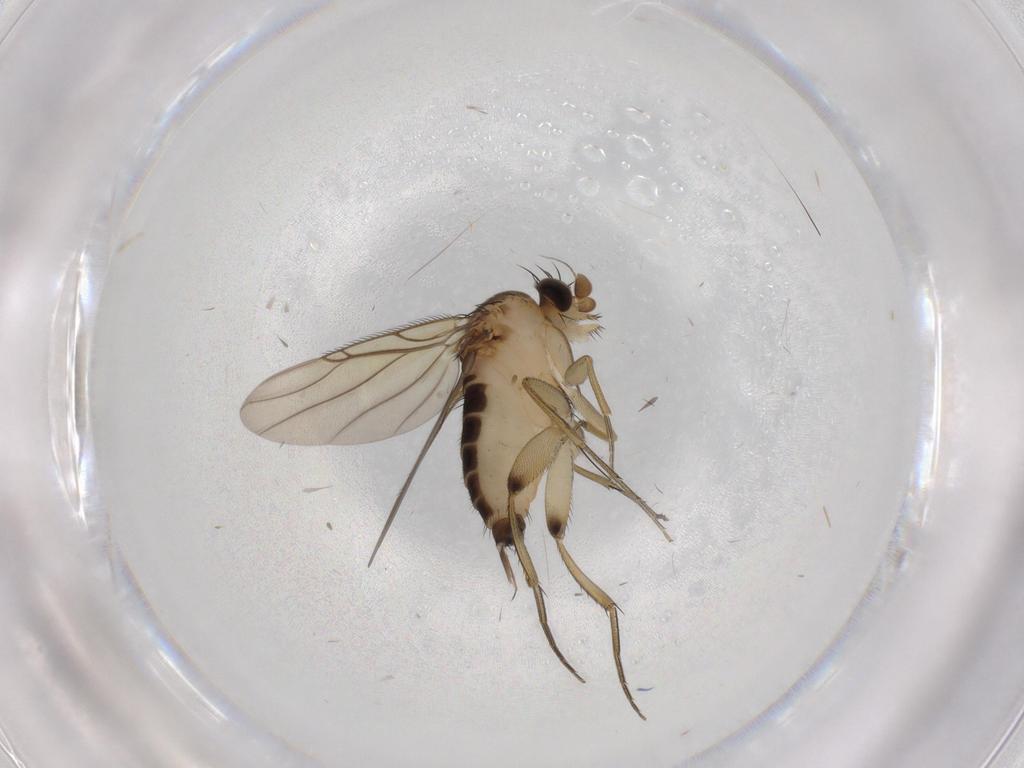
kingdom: Animalia
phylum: Arthropoda
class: Insecta
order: Diptera
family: Phoridae
